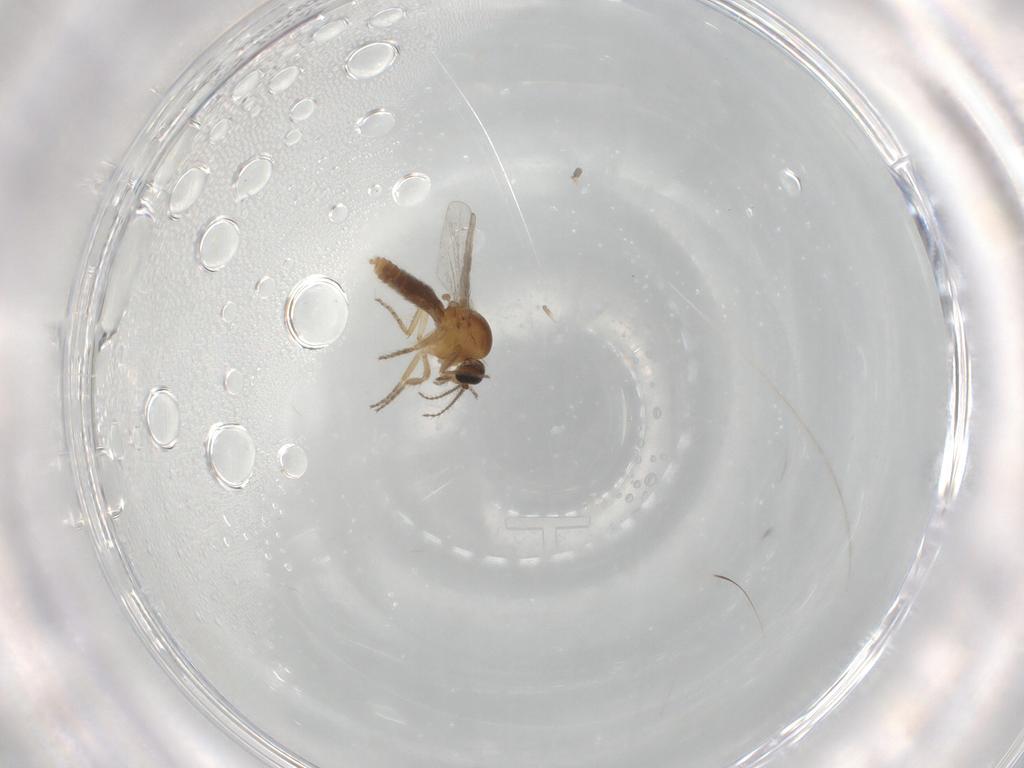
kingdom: Animalia
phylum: Arthropoda
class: Insecta
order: Diptera
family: Ceratopogonidae
